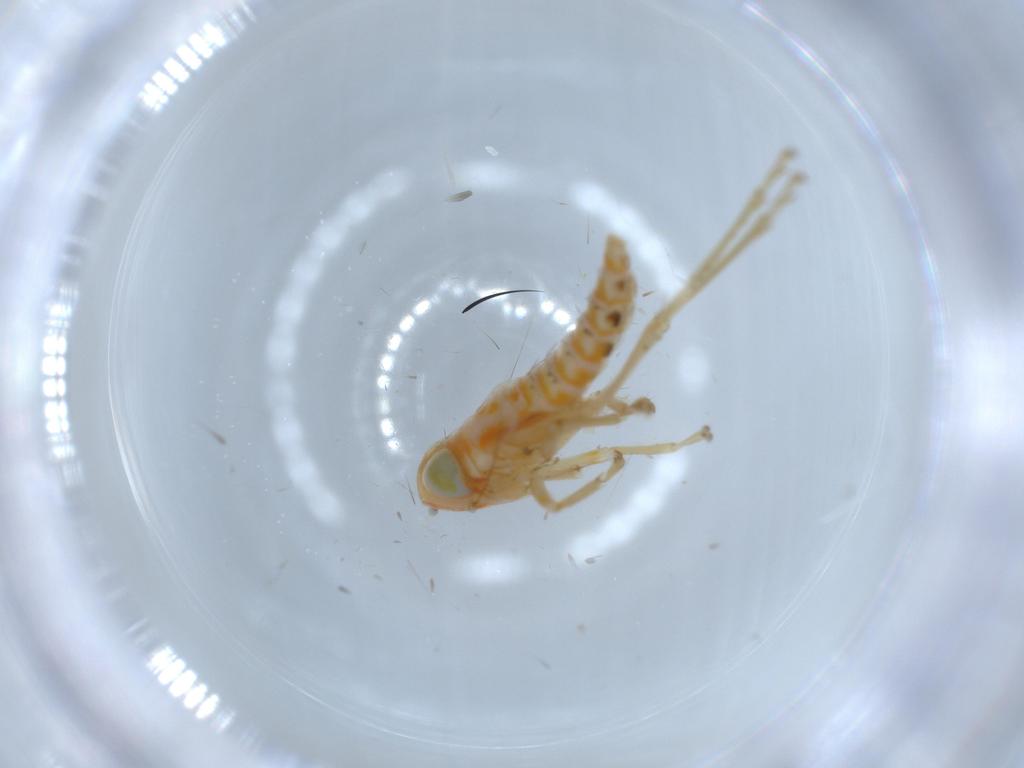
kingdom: Animalia
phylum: Arthropoda
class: Insecta
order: Hemiptera
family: Cicadellidae
